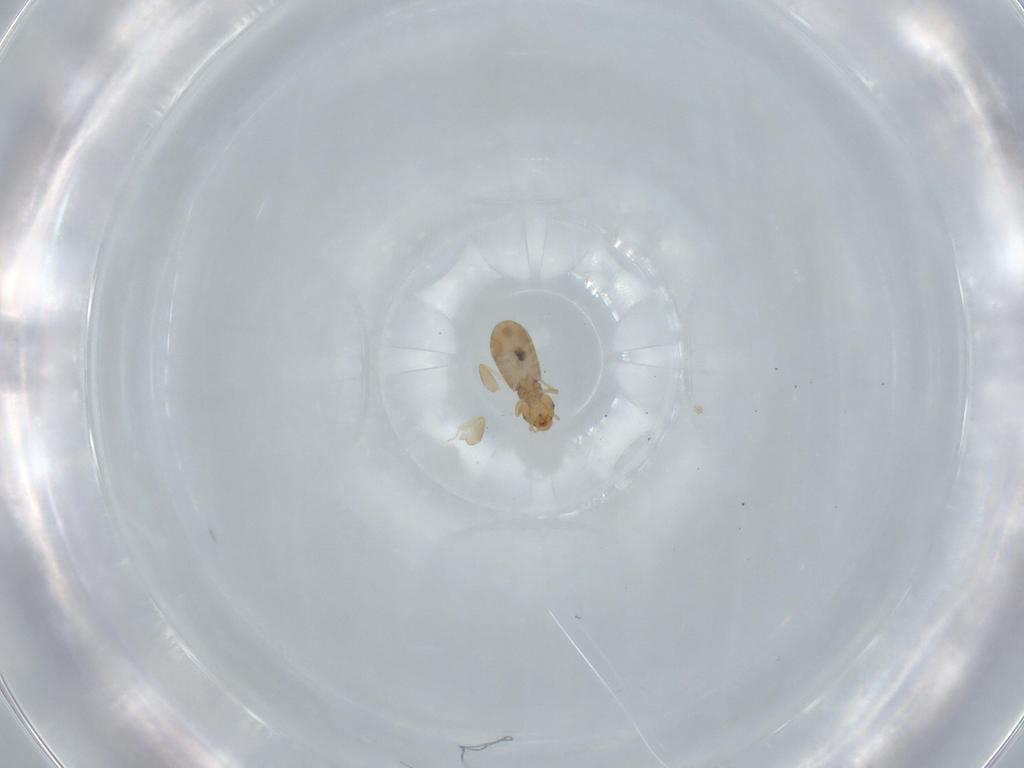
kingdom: Animalia
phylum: Arthropoda
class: Insecta
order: Psocodea
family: Liposcelididae
